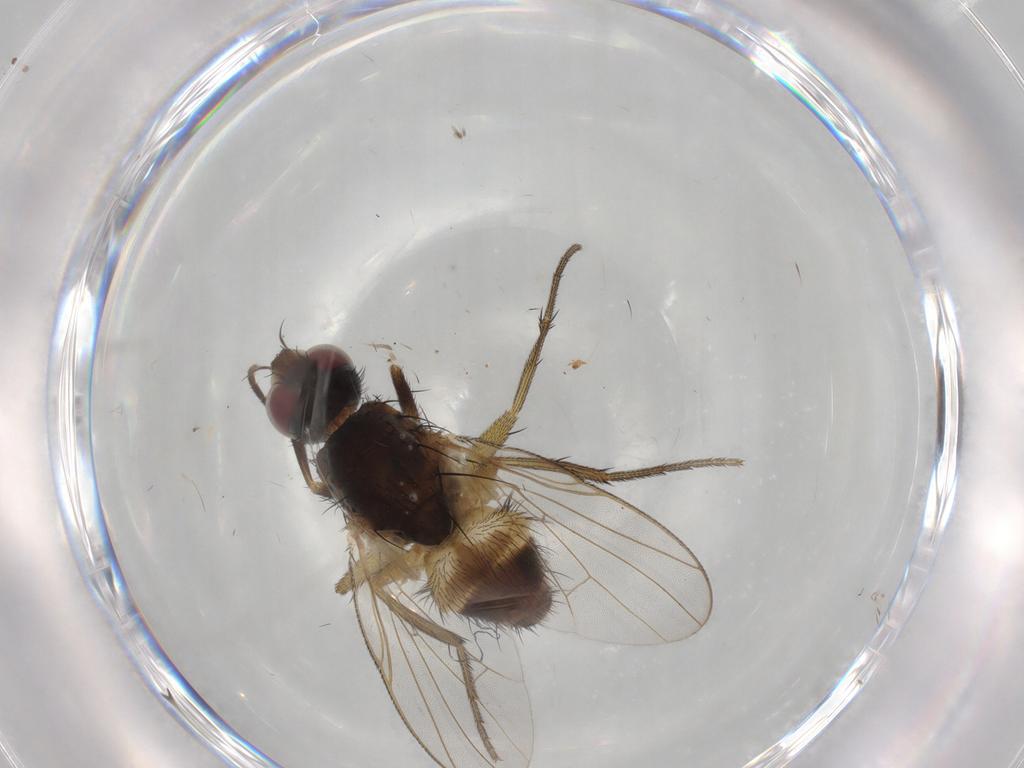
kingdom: Animalia
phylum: Arthropoda
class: Insecta
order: Diptera
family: Muscidae
